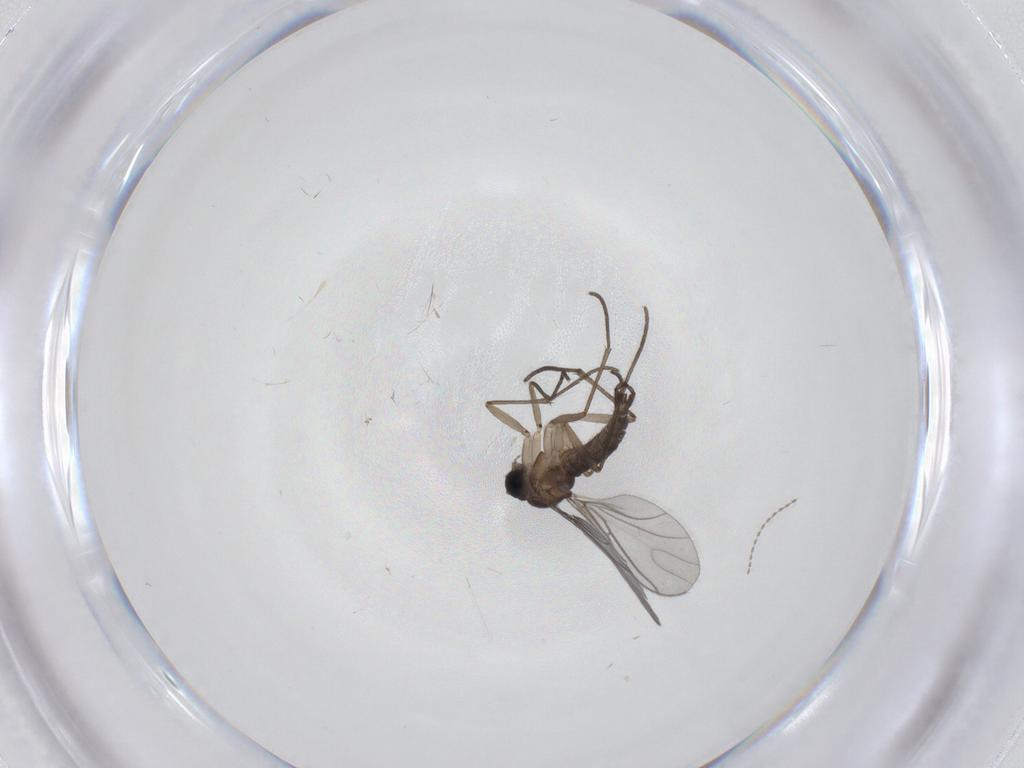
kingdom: Animalia
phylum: Arthropoda
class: Insecta
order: Diptera
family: Sciaridae
